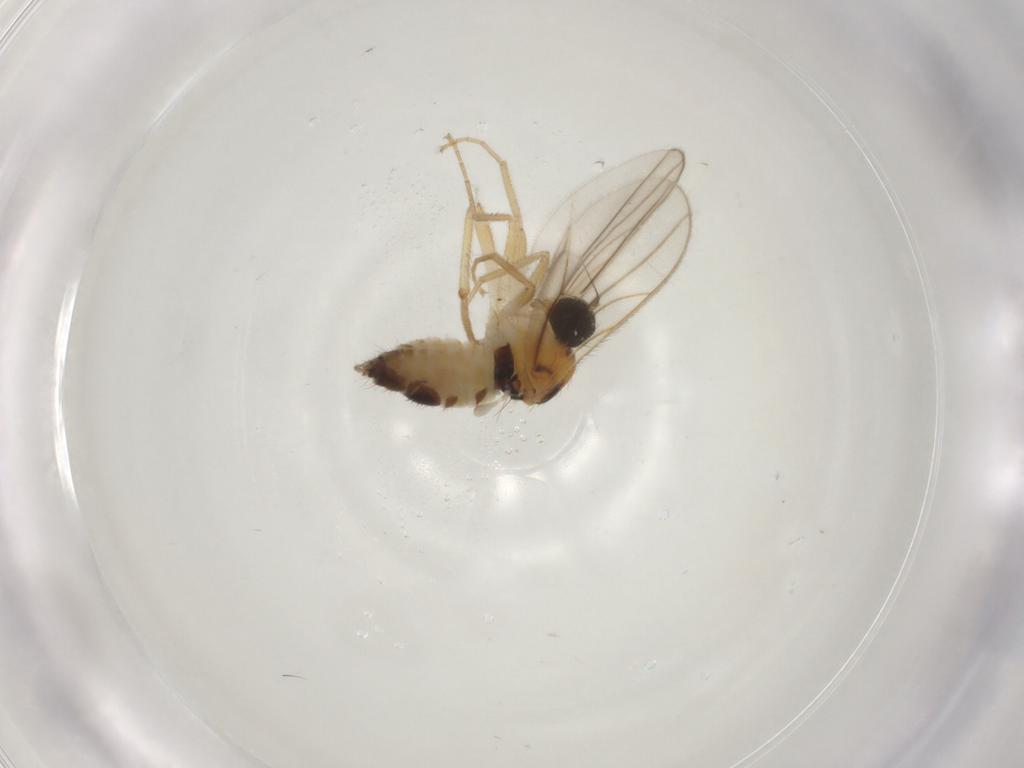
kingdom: Animalia
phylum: Arthropoda
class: Insecta
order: Diptera
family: Hybotidae
